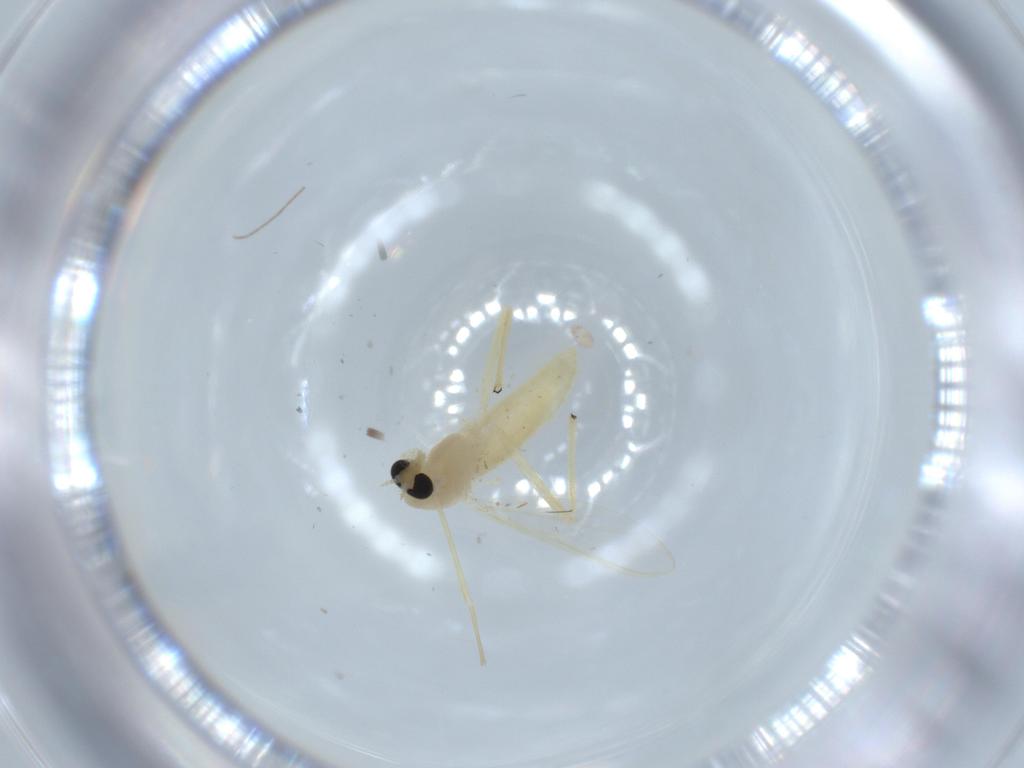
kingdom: Animalia
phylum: Arthropoda
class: Insecta
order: Diptera
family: Chironomidae
